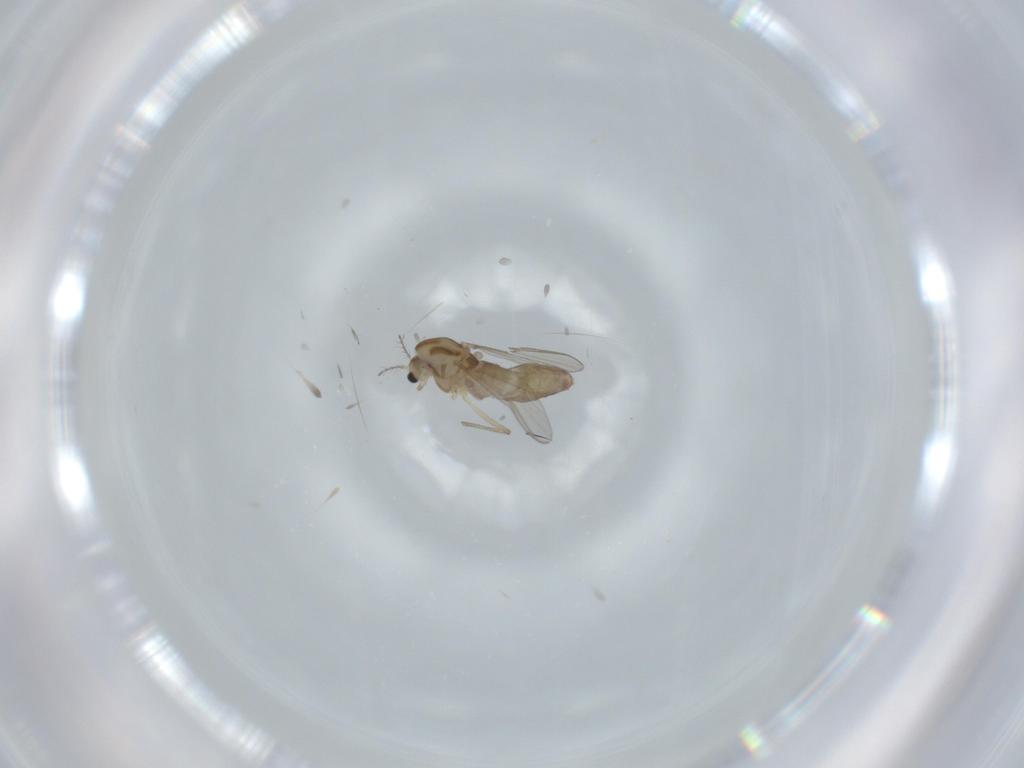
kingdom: Animalia
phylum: Arthropoda
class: Insecta
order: Diptera
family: Chironomidae
